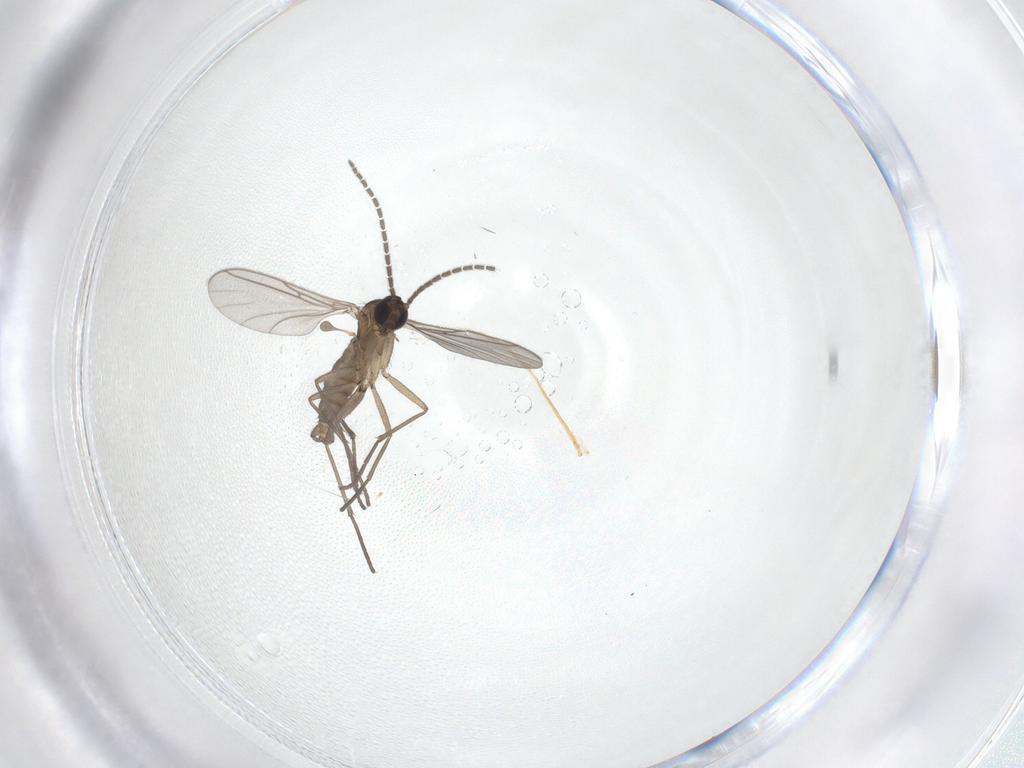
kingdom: Animalia
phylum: Arthropoda
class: Insecta
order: Diptera
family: Sciaridae
